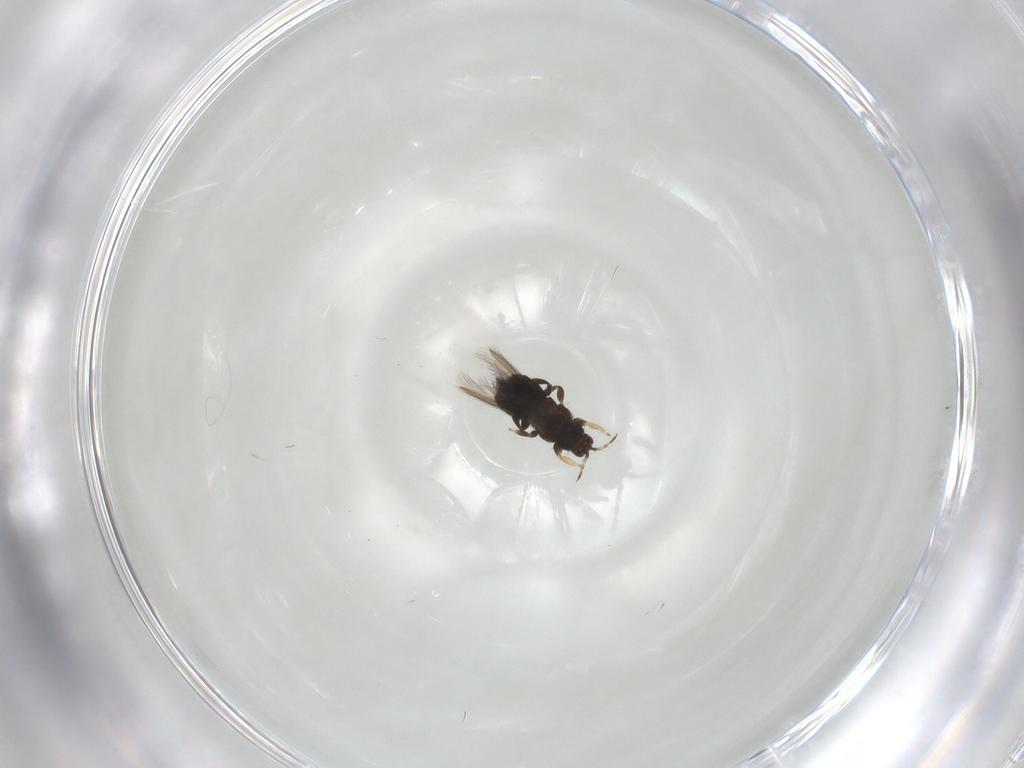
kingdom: Animalia
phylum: Arthropoda
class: Insecta
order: Thysanoptera
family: Thripidae
